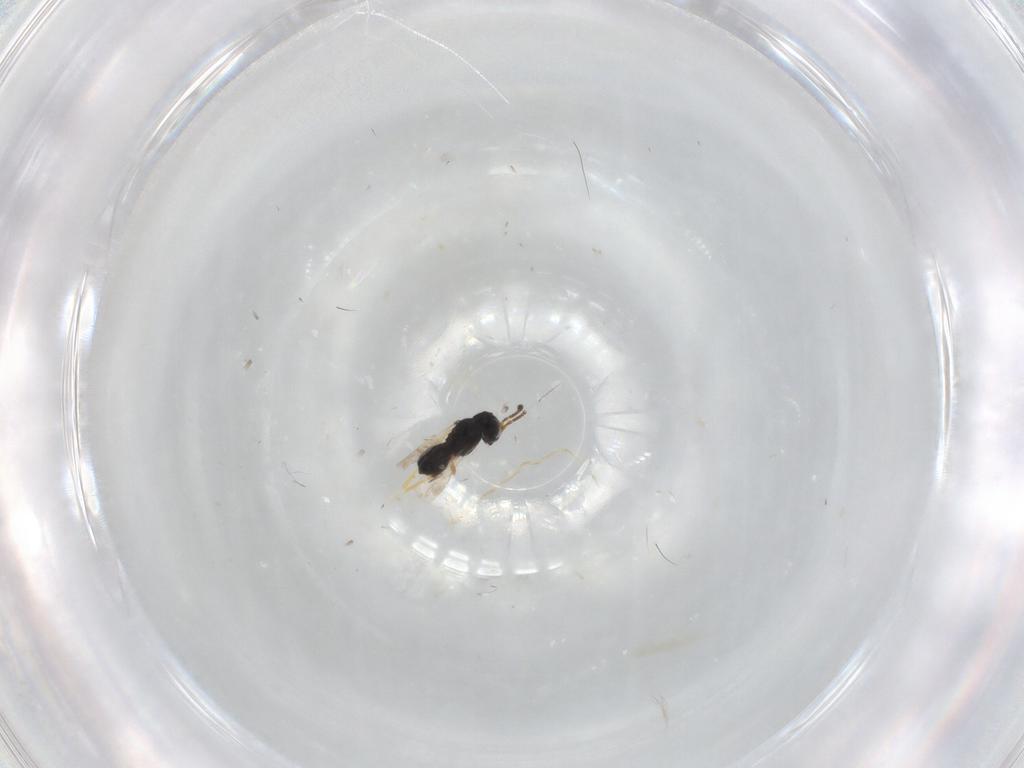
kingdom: Animalia
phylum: Arthropoda
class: Insecta
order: Hymenoptera
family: Scelionidae
